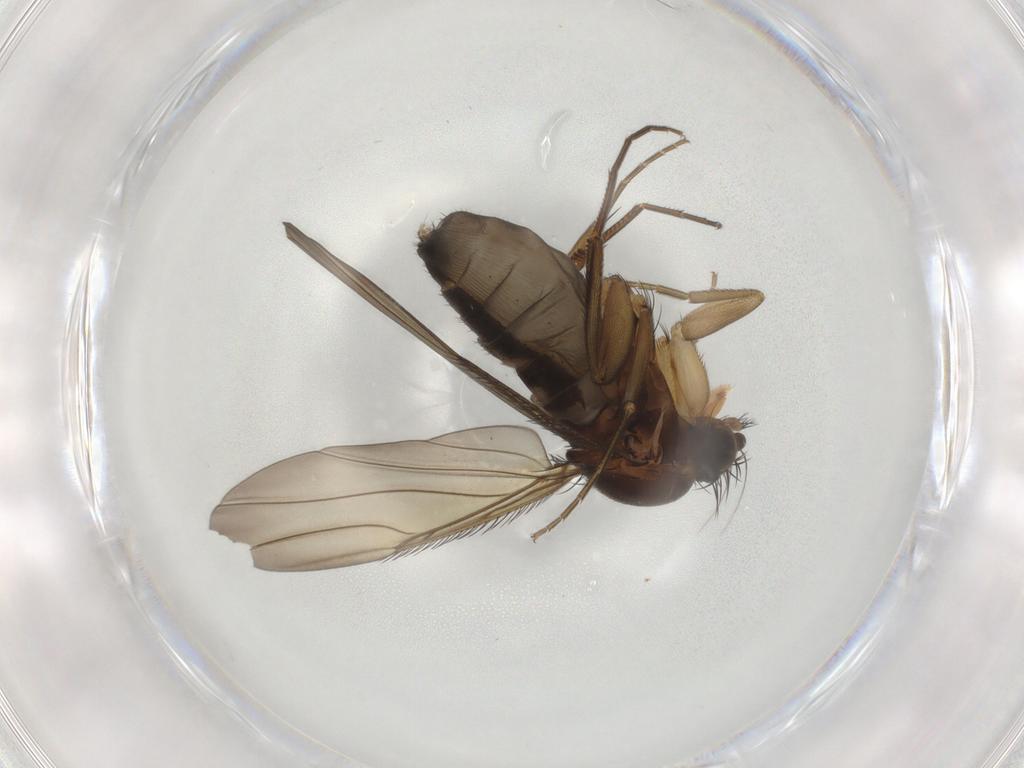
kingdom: Animalia
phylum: Arthropoda
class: Insecta
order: Diptera
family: Phoridae
